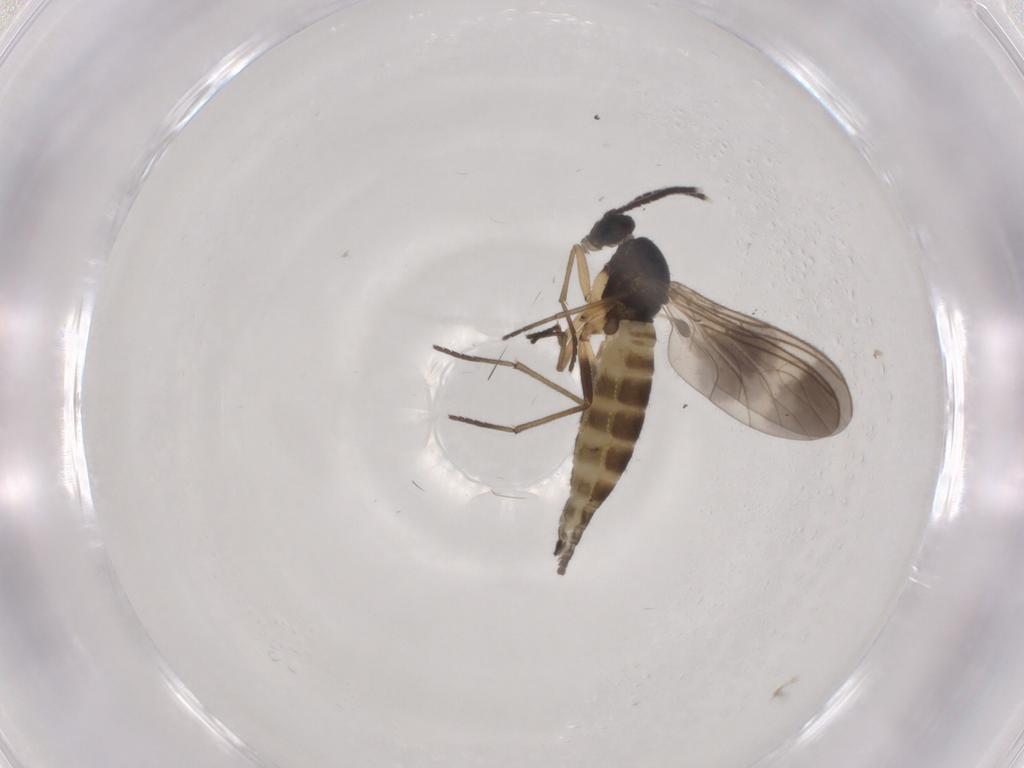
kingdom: Animalia
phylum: Arthropoda
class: Insecta
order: Diptera
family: Sciaridae
